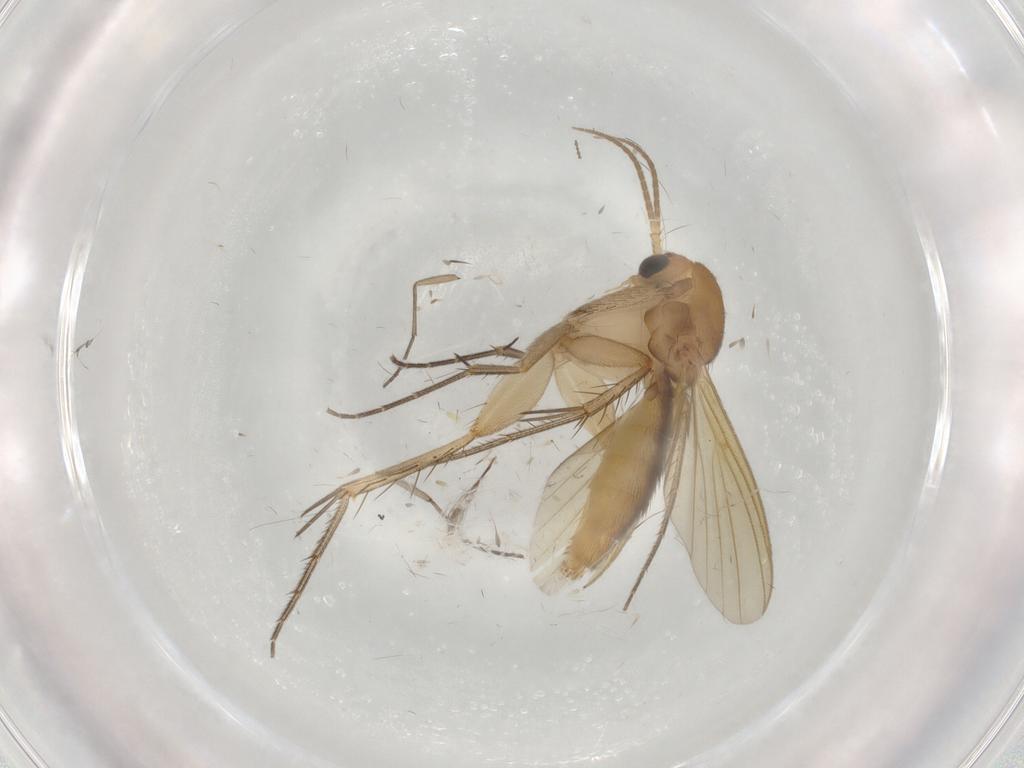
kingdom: Animalia
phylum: Arthropoda
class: Insecta
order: Diptera
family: Mycetophilidae
